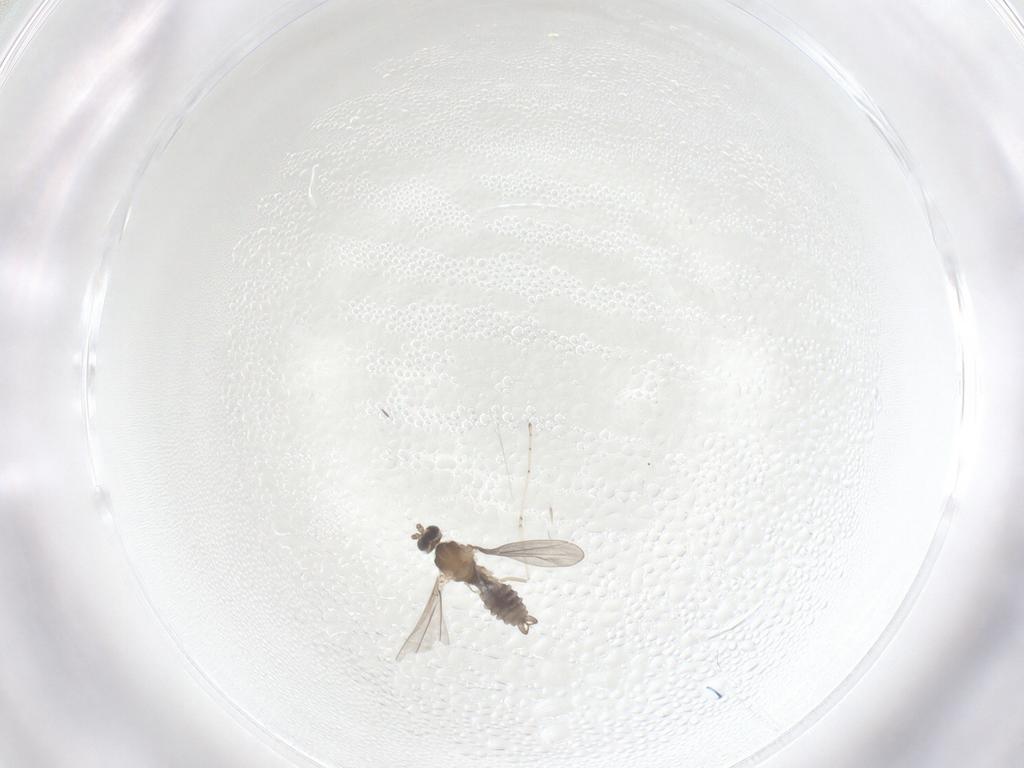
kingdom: Animalia
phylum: Arthropoda
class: Insecta
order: Diptera
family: Cecidomyiidae
